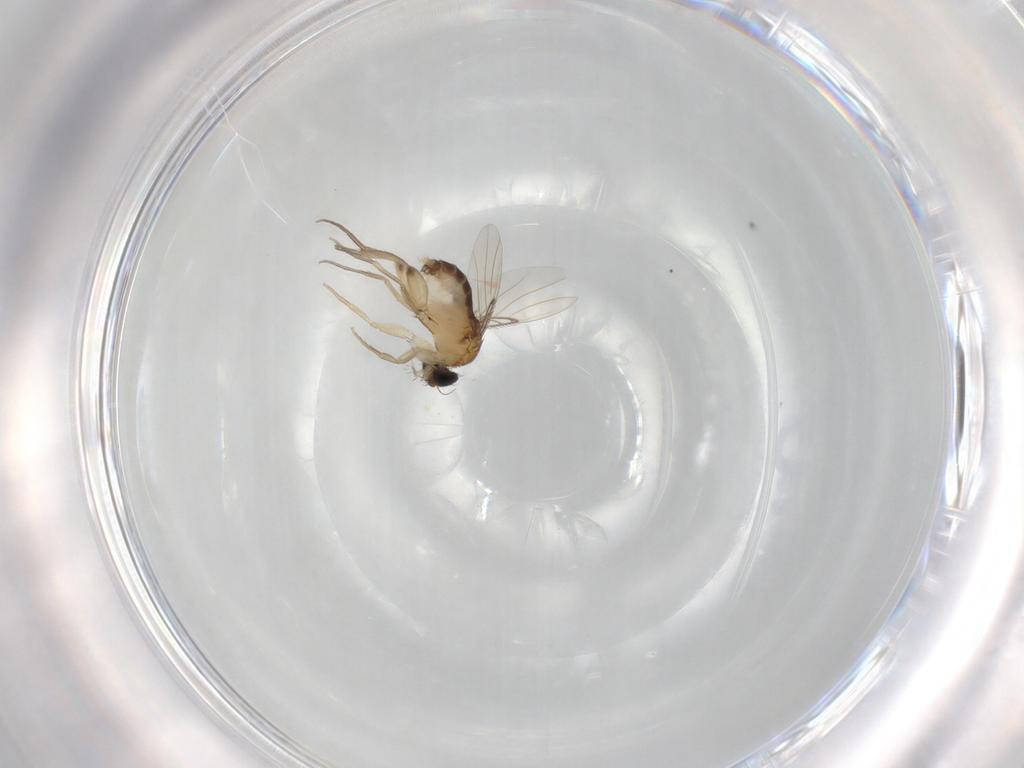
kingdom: Animalia
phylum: Arthropoda
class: Insecta
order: Diptera
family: Phoridae
